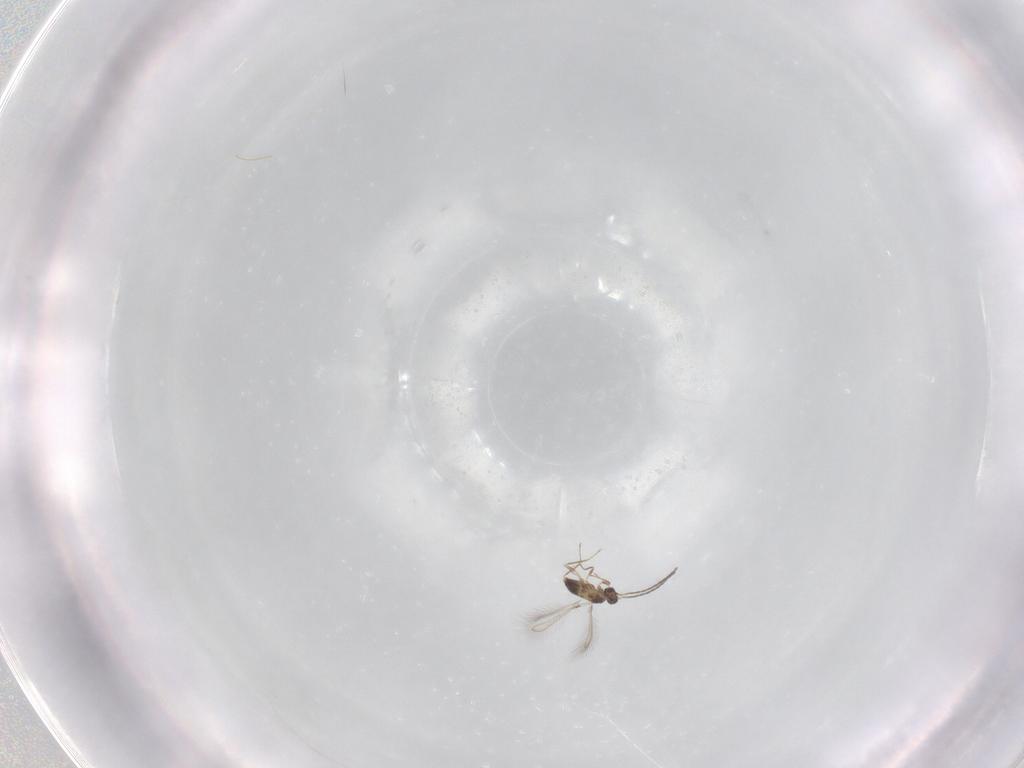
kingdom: Animalia
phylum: Arthropoda
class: Insecta
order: Hymenoptera
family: Mymaridae
